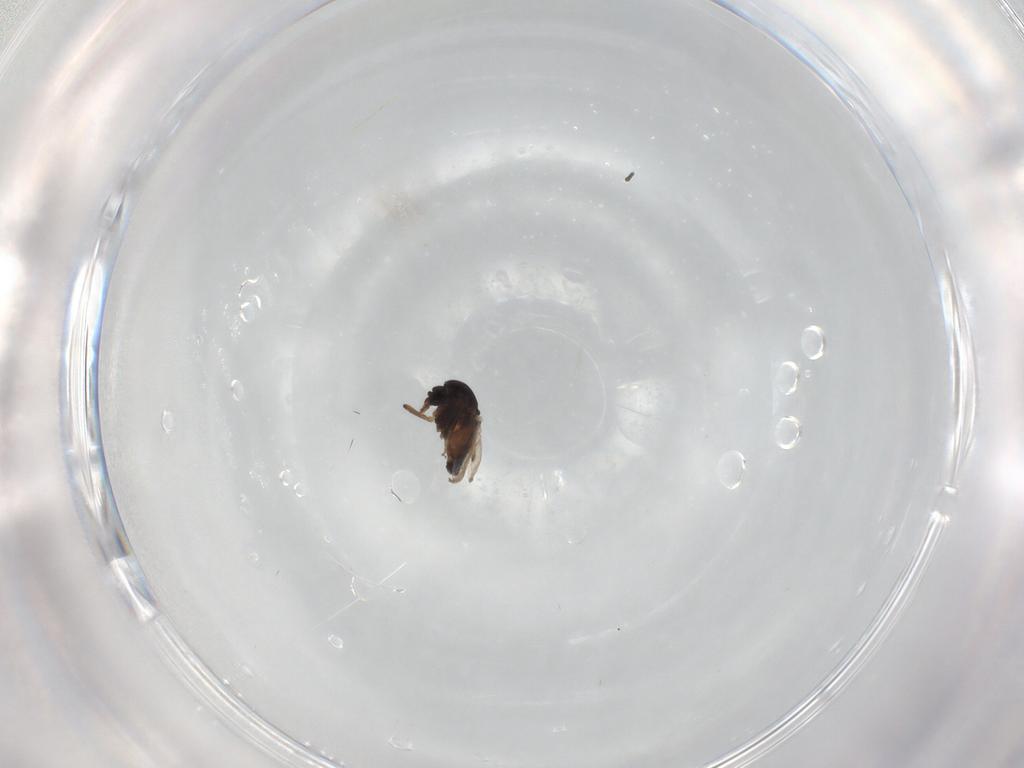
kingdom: Animalia
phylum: Arthropoda
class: Insecta
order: Diptera
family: Ceratopogonidae
